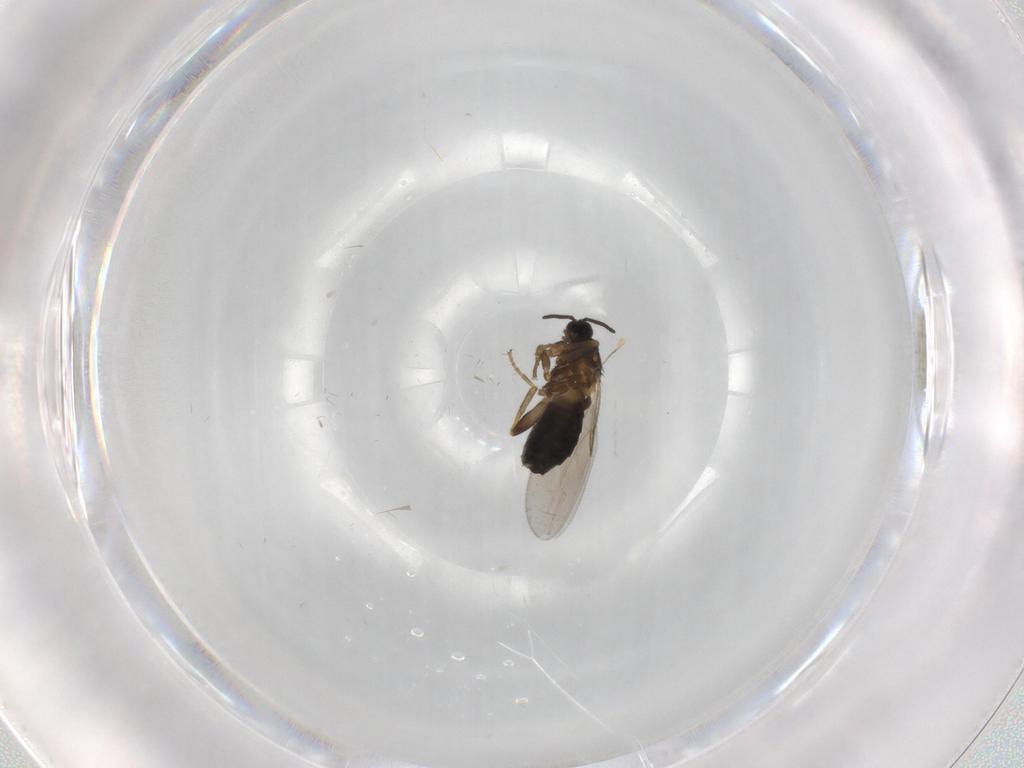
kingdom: Animalia
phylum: Arthropoda
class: Insecta
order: Diptera
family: Scatopsidae
